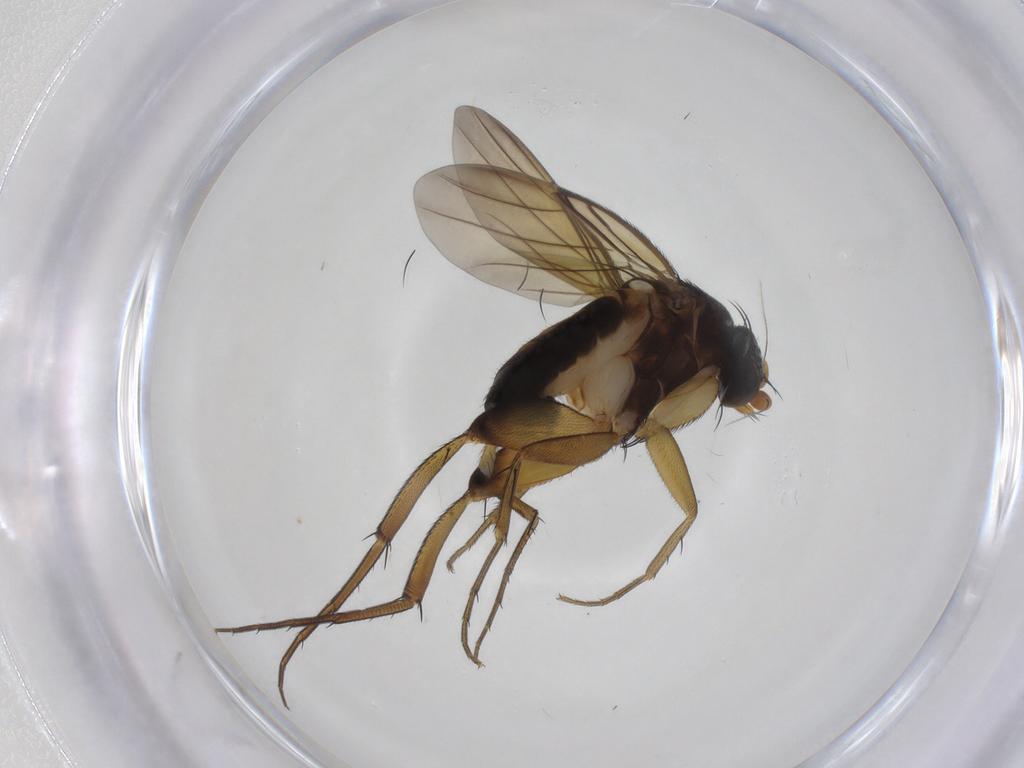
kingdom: Animalia
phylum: Arthropoda
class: Insecta
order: Diptera
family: Phoridae
